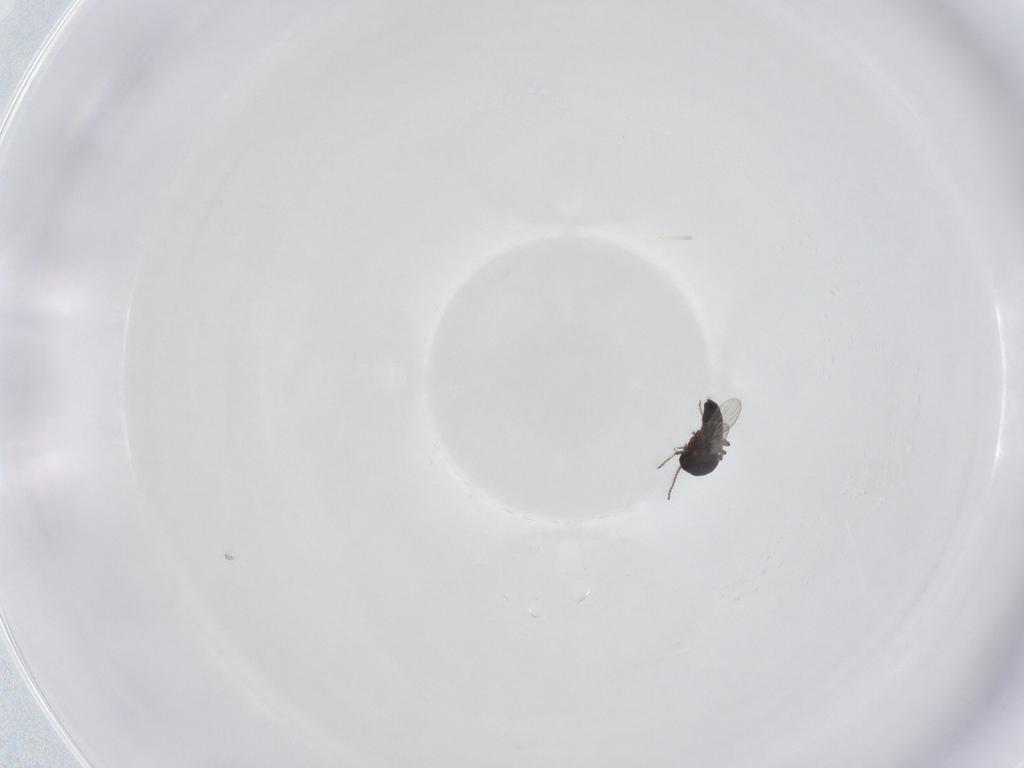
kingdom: Animalia
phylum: Arthropoda
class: Insecta
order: Diptera
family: Ceratopogonidae
